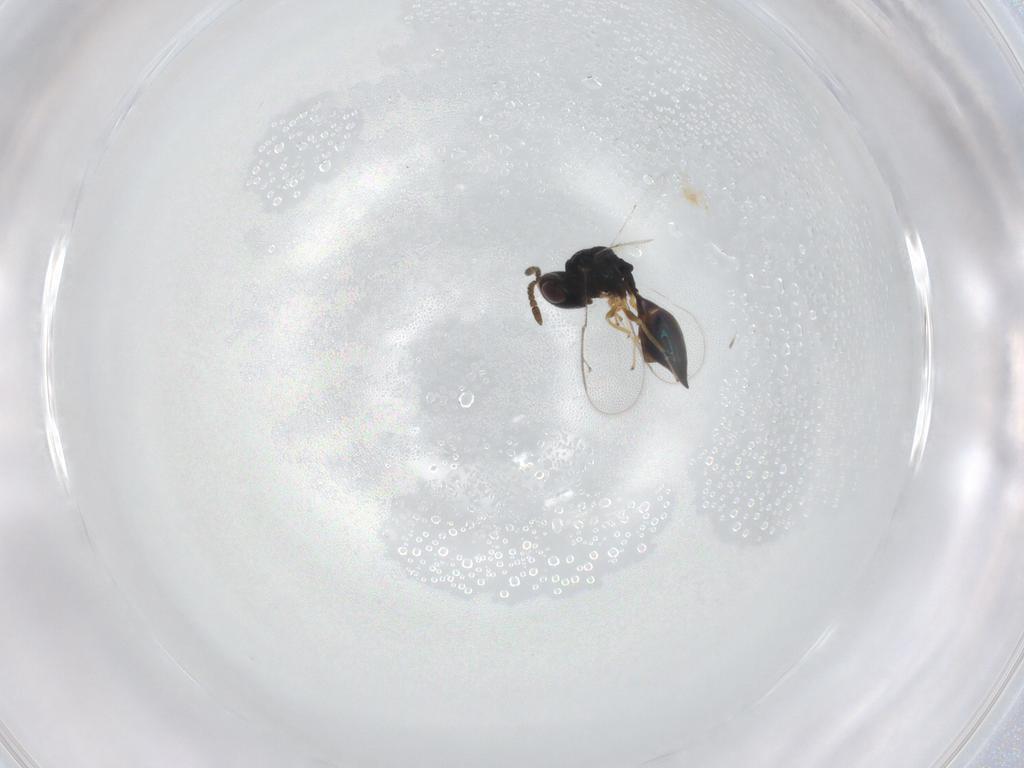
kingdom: Animalia
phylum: Arthropoda
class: Insecta
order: Hymenoptera
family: Pteromalidae
